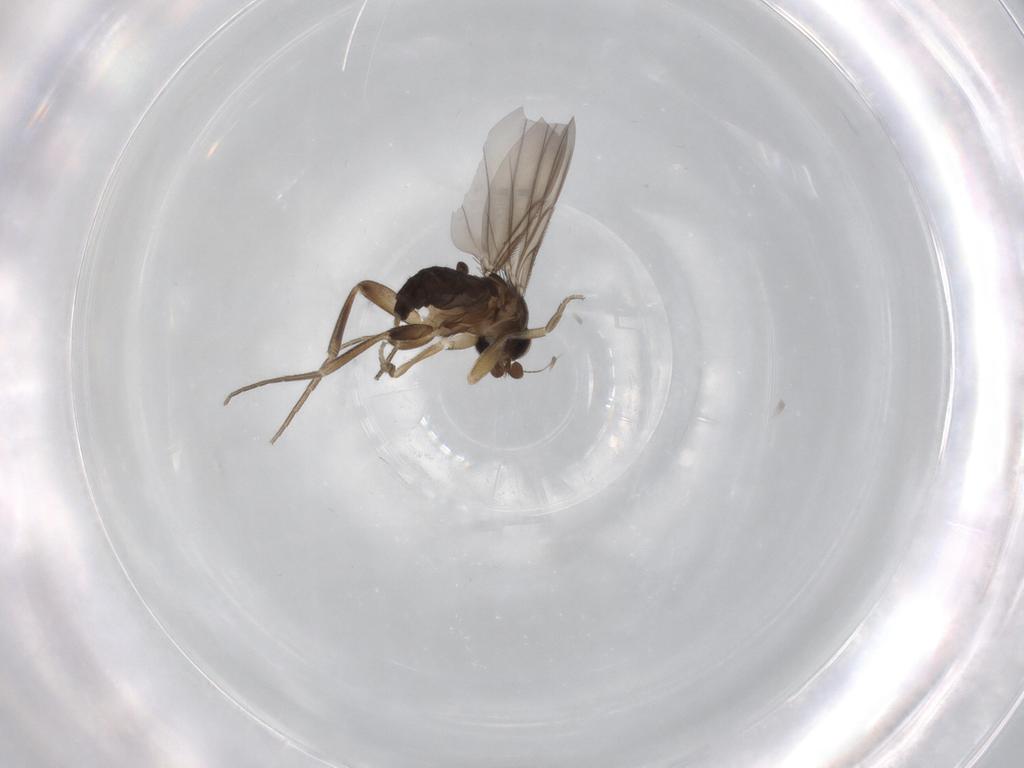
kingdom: Animalia
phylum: Arthropoda
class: Insecta
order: Diptera
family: Phoridae
